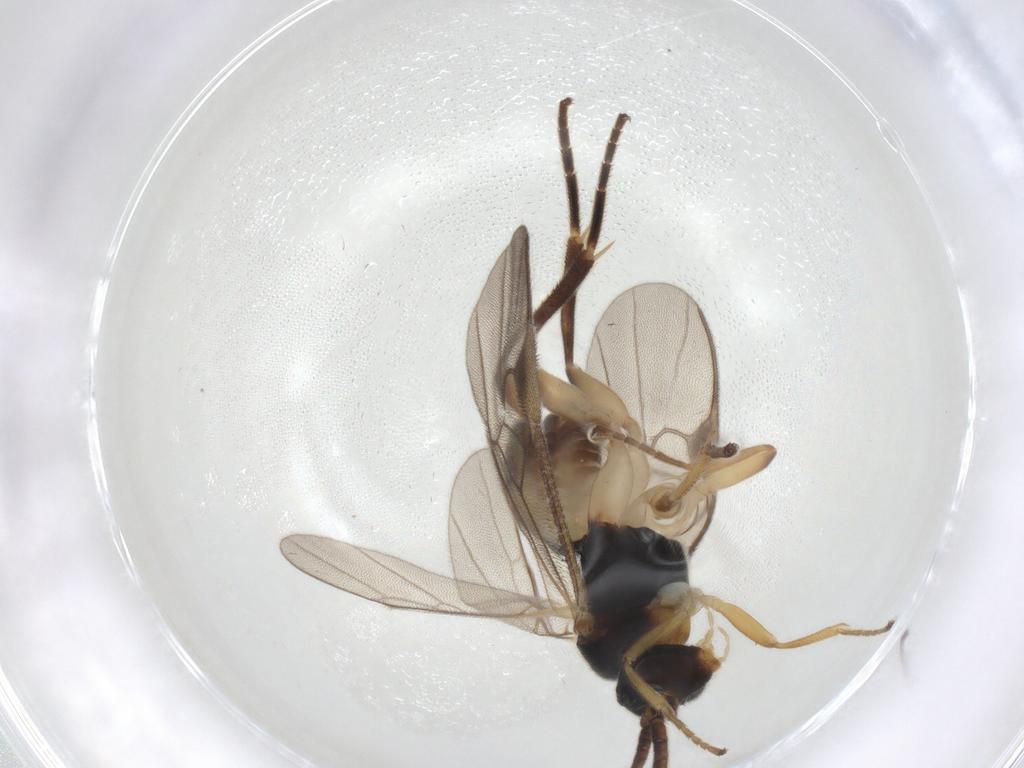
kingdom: Animalia
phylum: Arthropoda
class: Insecta
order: Hymenoptera
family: Braconidae
